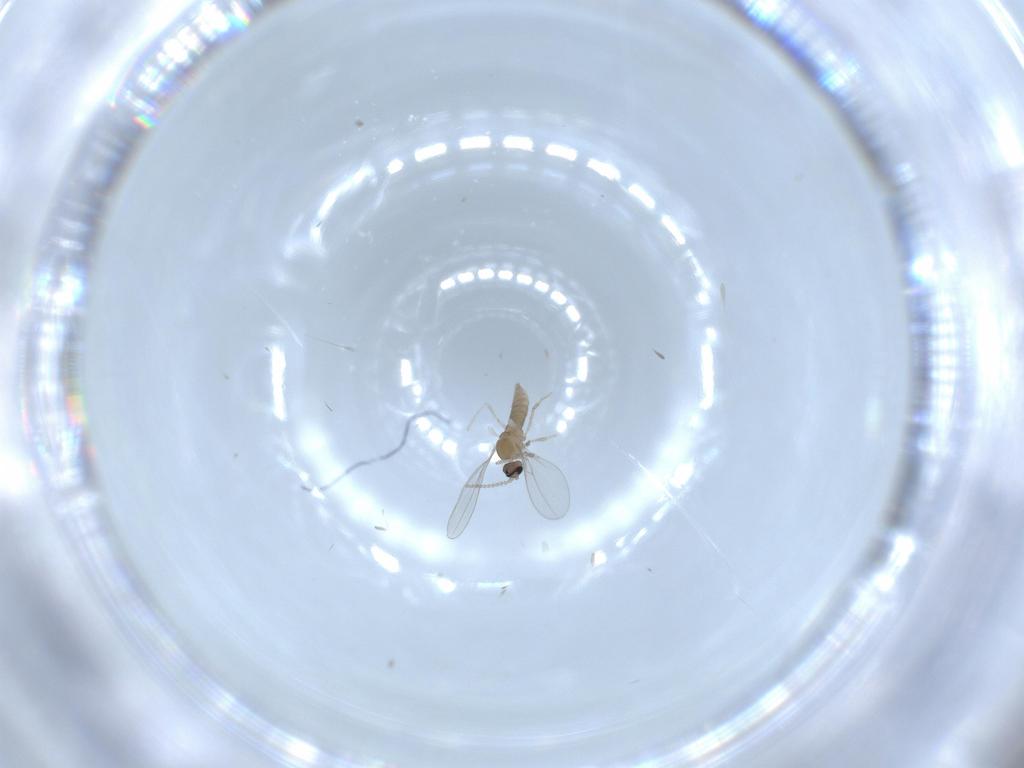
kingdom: Animalia
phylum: Arthropoda
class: Insecta
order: Diptera
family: Cecidomyiidae
